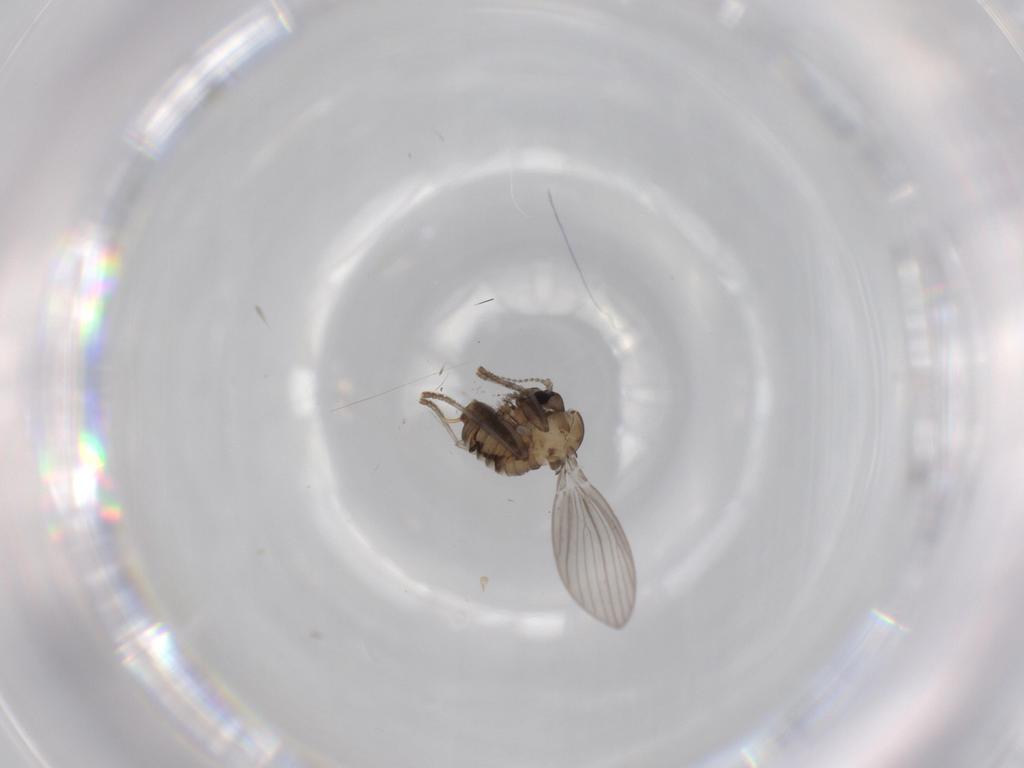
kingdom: Animalia
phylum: Arthropoda
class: Insecta
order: Diptera
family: Psychodidae
